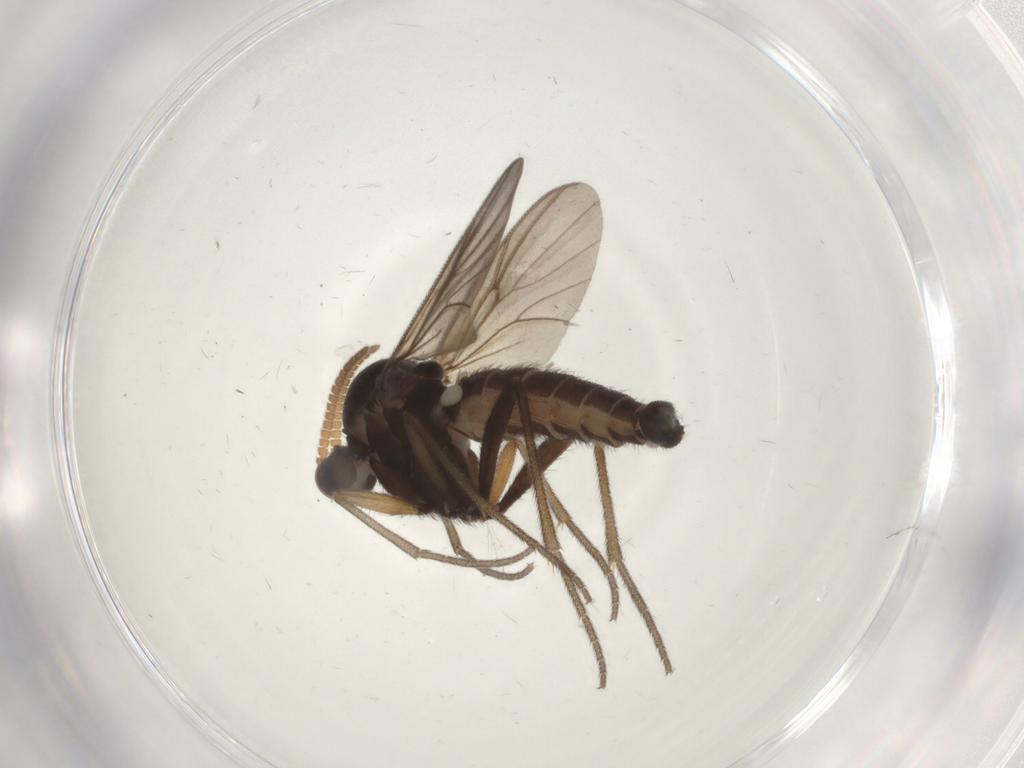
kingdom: Animalia
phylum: Arthropoda
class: Insecta
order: Diptera
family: Mycetophilidae
